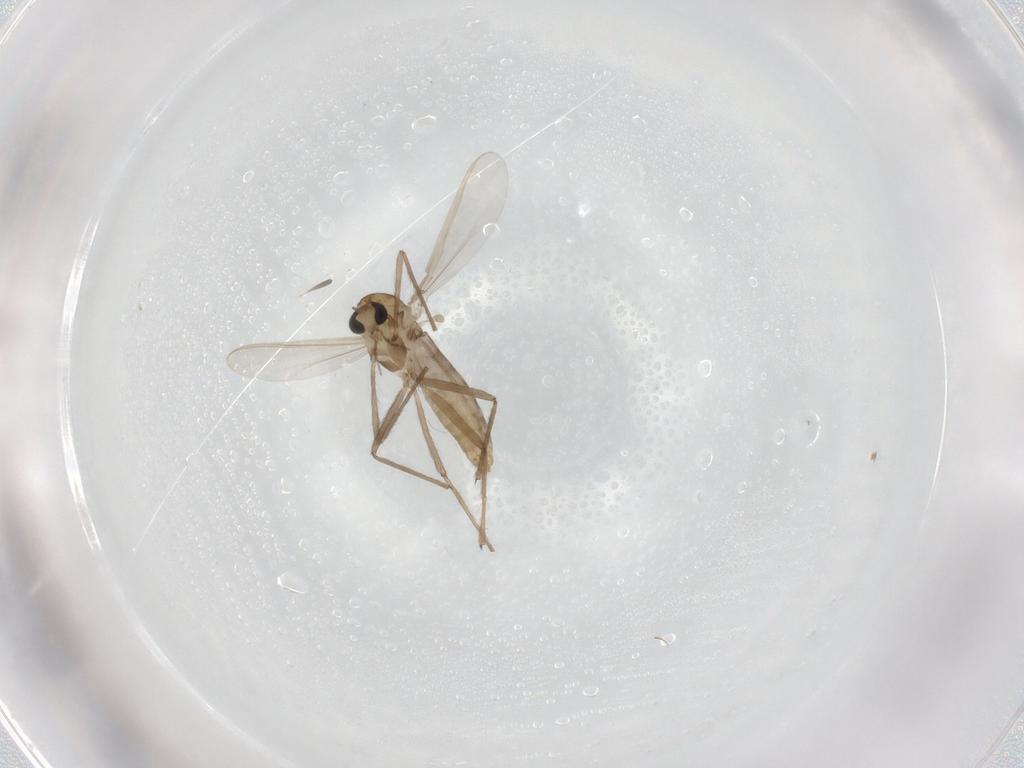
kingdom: Animalia
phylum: Arthropoda
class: Insecta
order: Diptera
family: Chironomidae
